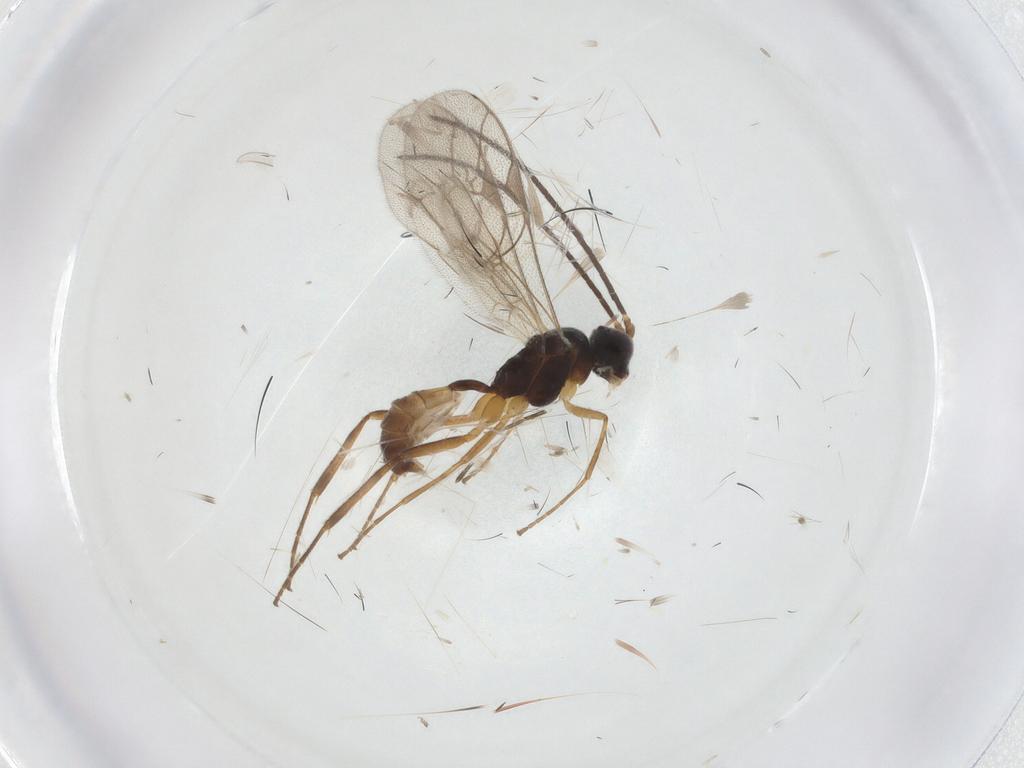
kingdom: Animalia
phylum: Arthropoda
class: Insecta
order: Hymenoptera
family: Ichneumonidae
